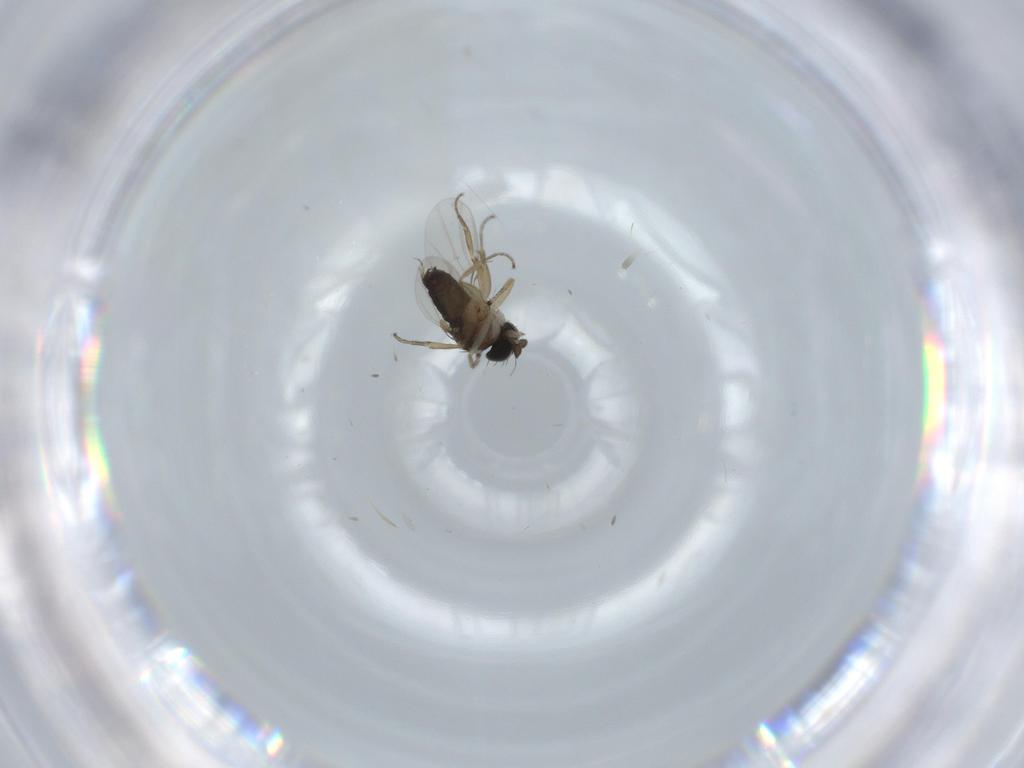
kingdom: Animalia
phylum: Arthropoda
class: Insecta
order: Diptera
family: Phoridae
